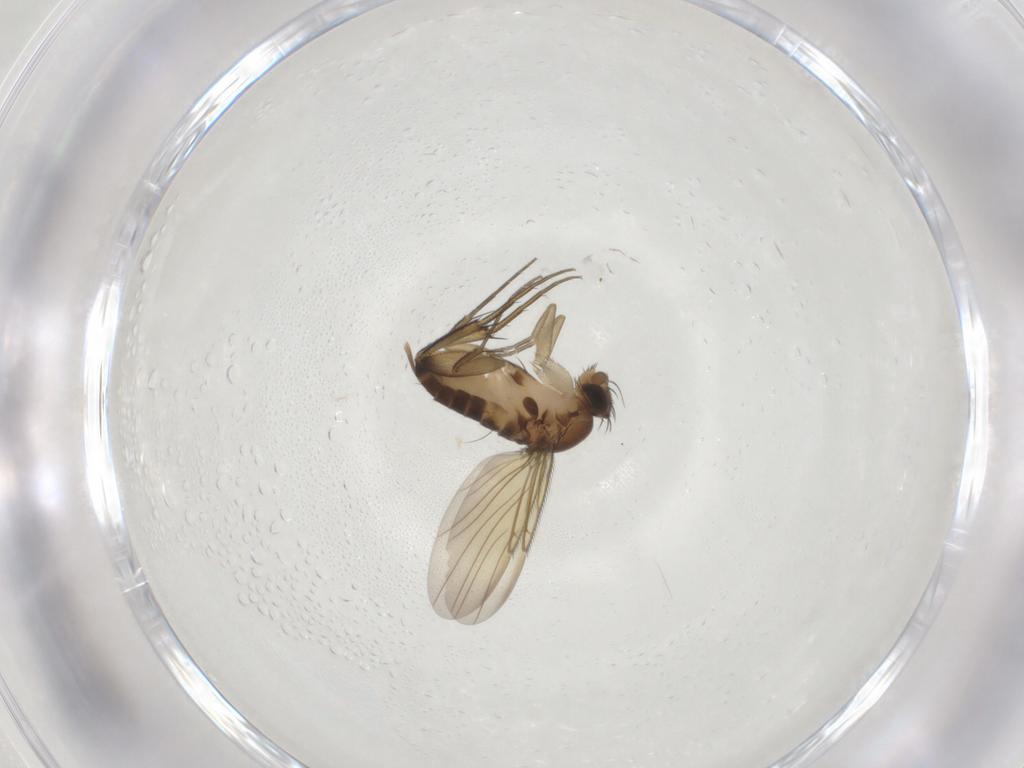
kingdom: Animalia
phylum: Arthropoda
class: Insecta
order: Diptera
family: Phoridae
